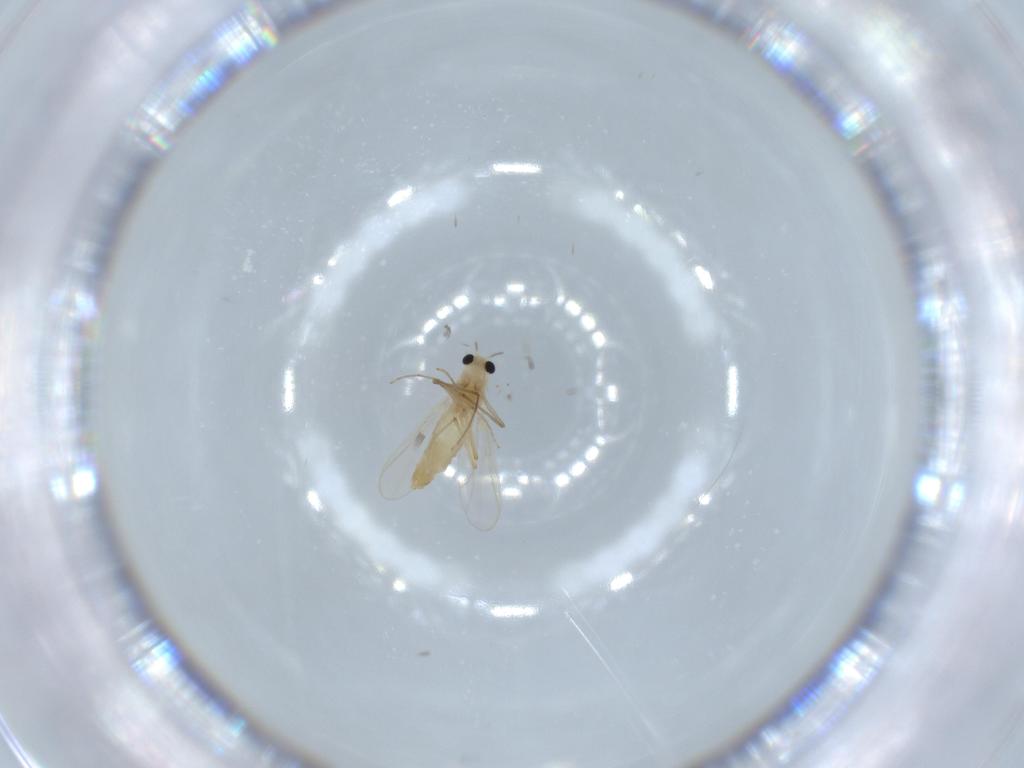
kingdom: Animalia
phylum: Arthropoda
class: Insecta
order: Diptera
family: Chironomidae
